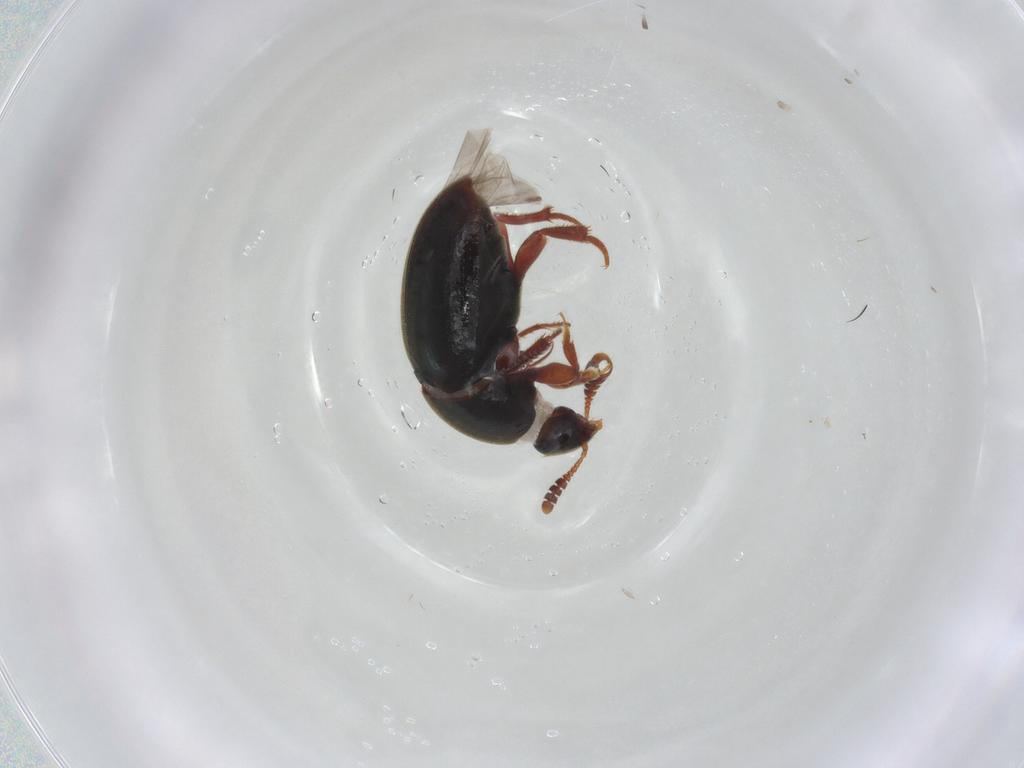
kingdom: Animalia
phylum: Arthropoda
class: Insecta
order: Coleoptera
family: Leiodidae
